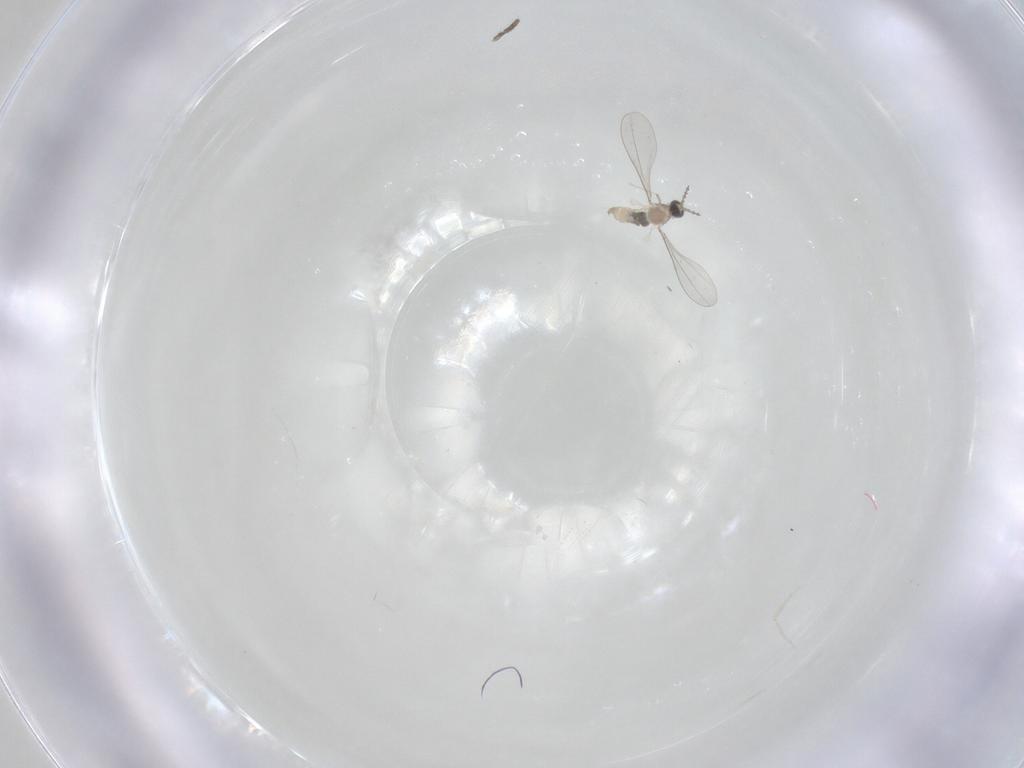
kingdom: Animalia
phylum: Arthropoda
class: Insecta
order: Diptera
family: Cecidomyiidae
